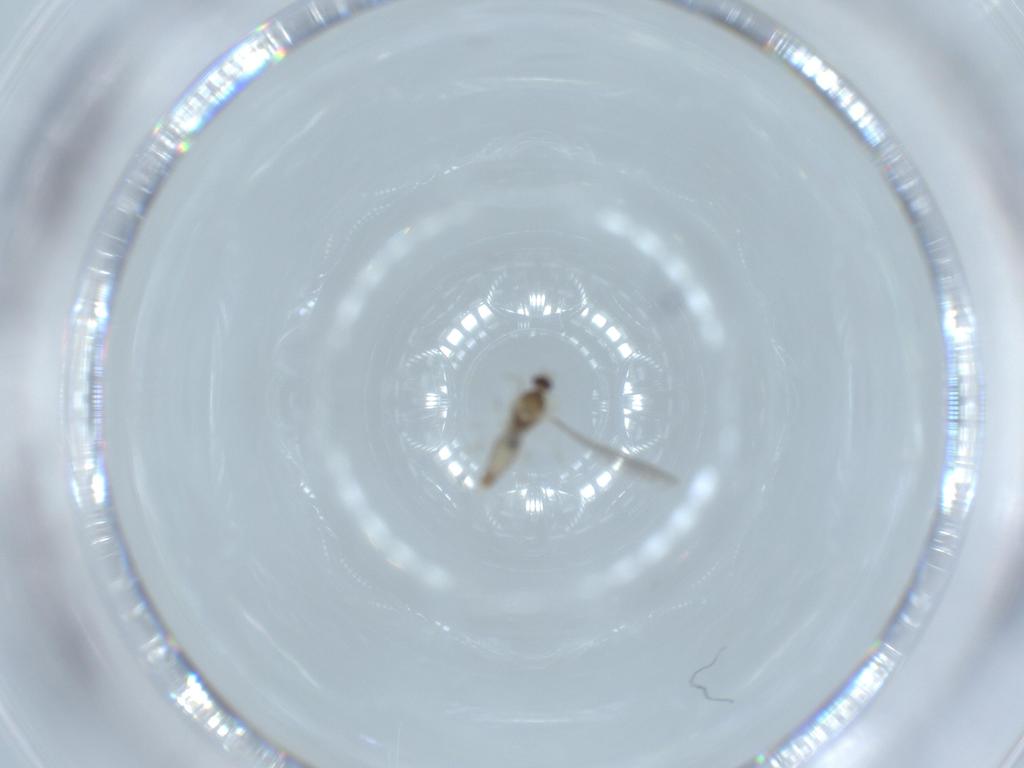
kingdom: Animalia
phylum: Arthropoda
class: Insecta
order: Diptera
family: Cecidomyiidae
